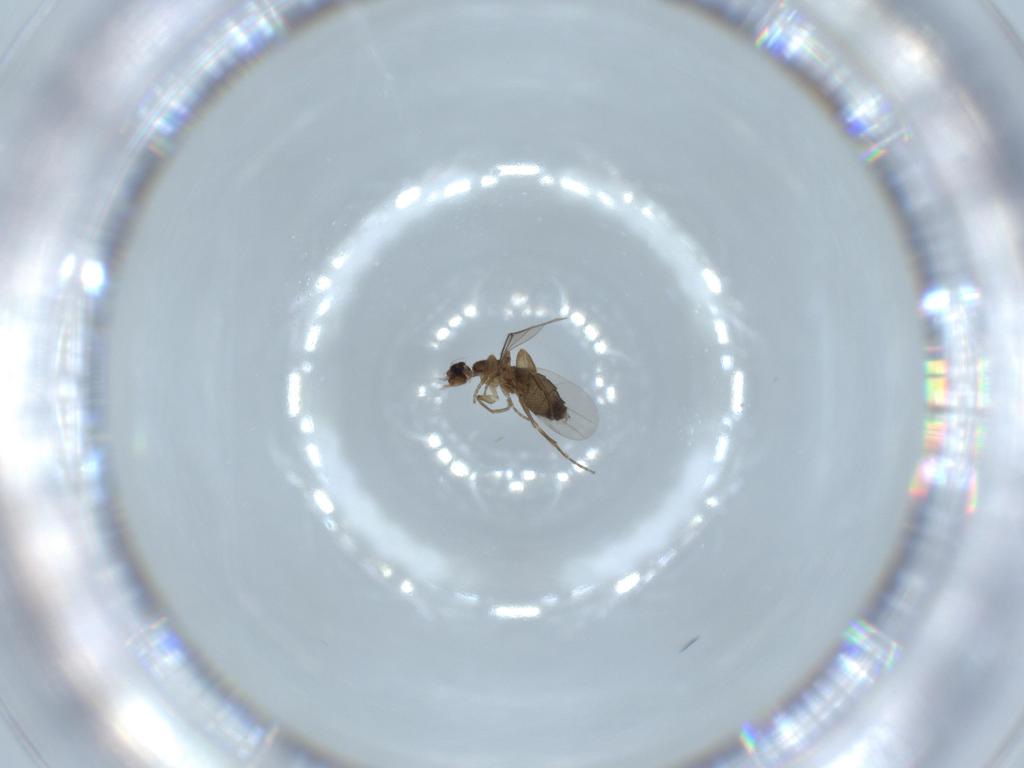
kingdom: Animalia
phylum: Arthropoda
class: Insecta
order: Diptera
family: Phoridae
